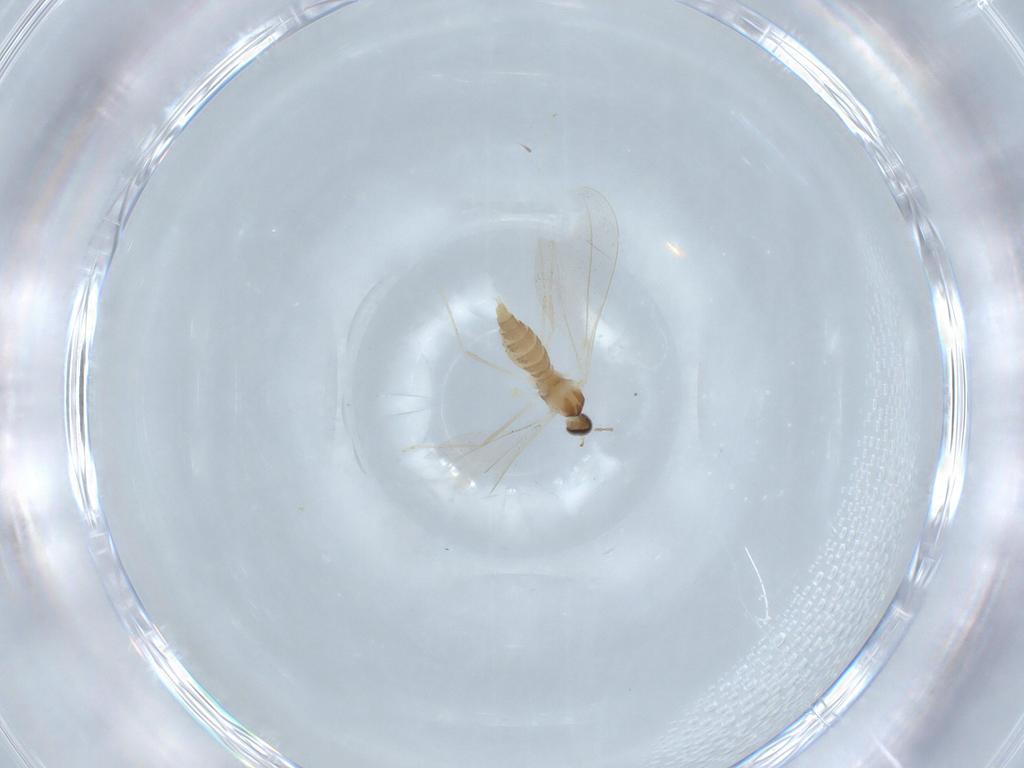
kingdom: Animalia
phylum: Arthropoda
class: Insecta
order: Diptera
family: Cecidomyiidae
